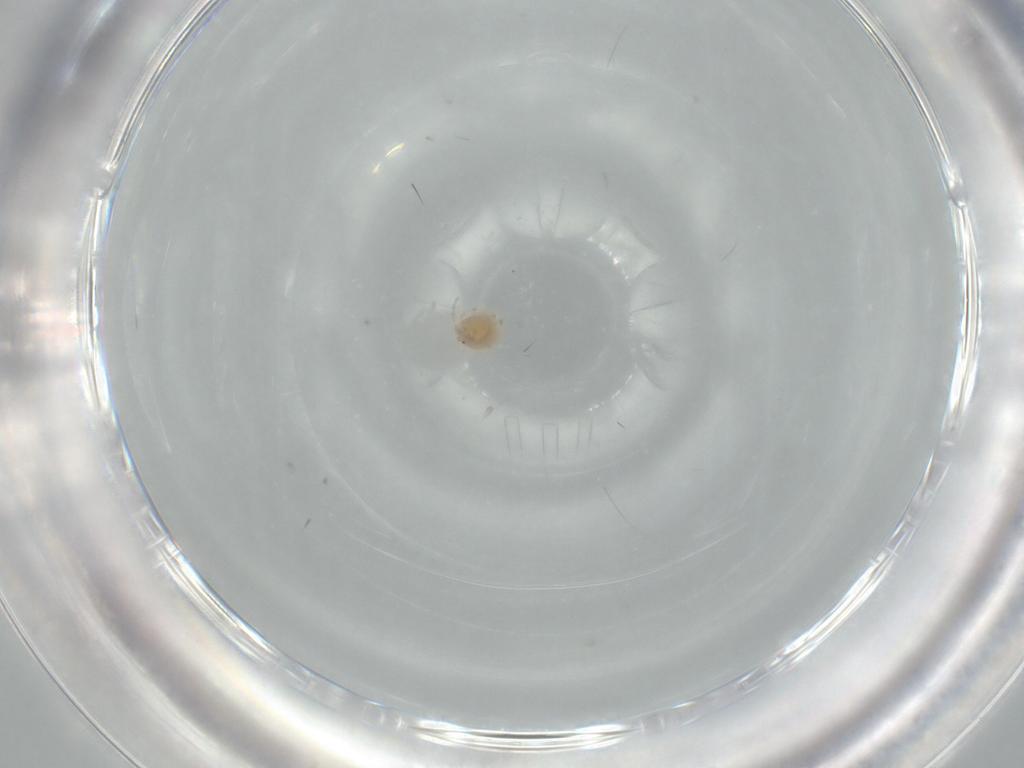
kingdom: Animalia
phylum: Arthropoda
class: Arachnida
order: Trombidiformes
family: Lebertiidae
